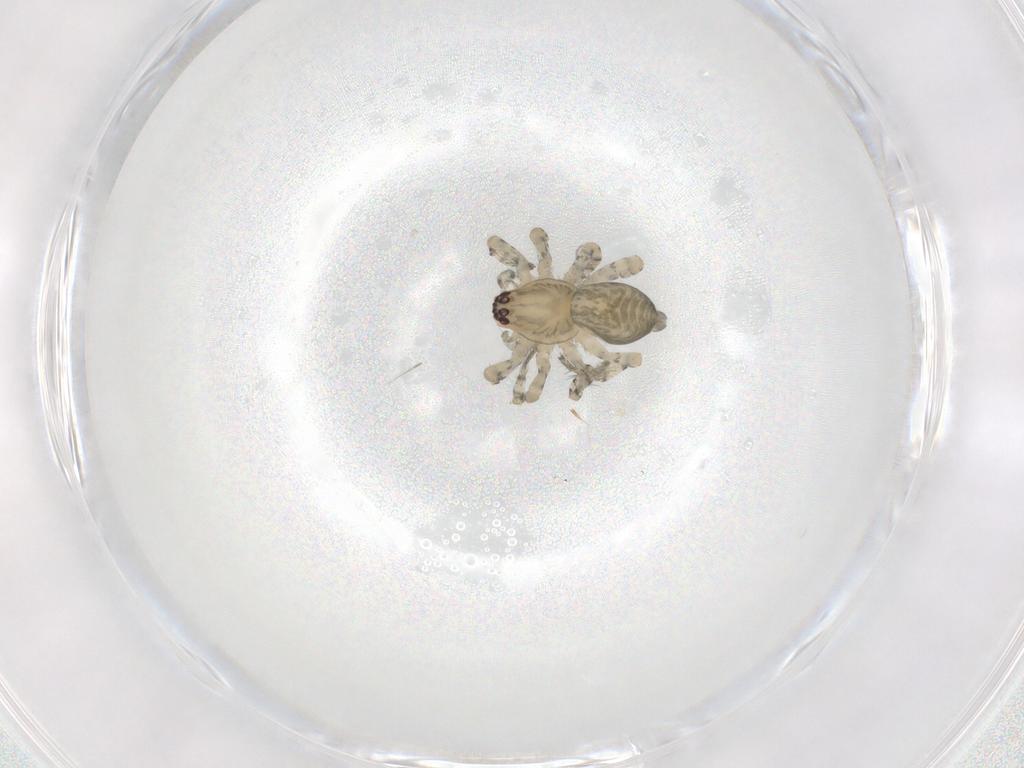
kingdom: Animalia
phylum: Arthropoda
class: Arachnida
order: Araneae
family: Anyphaenidae
